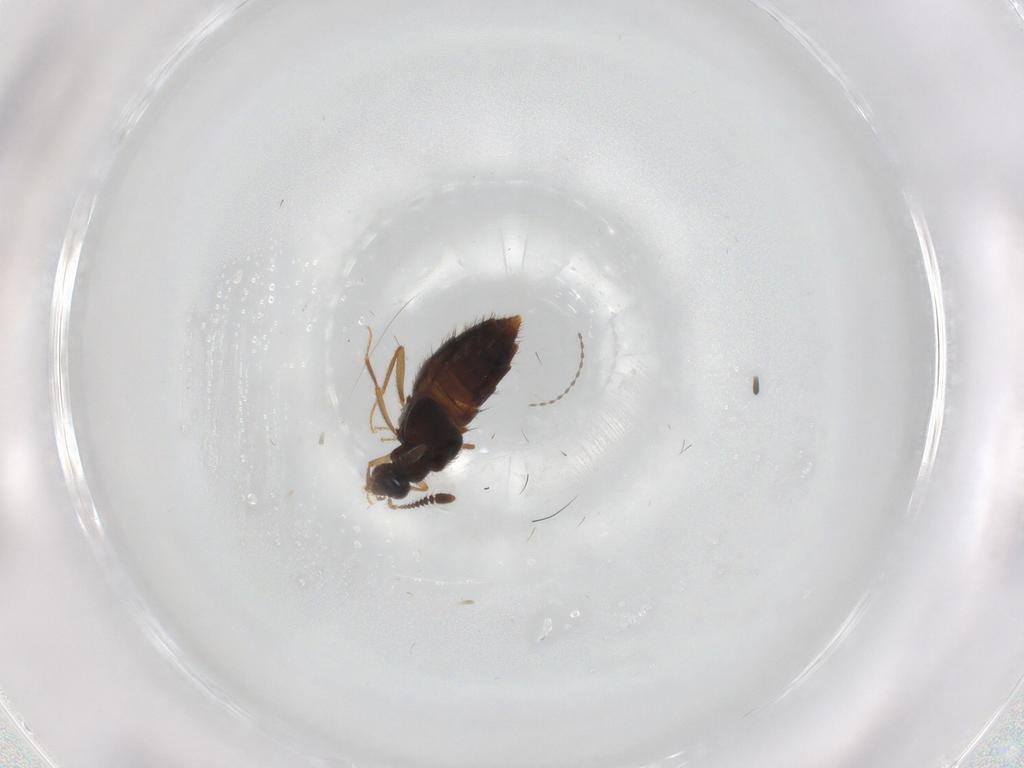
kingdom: Animalia
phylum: Arthropoda
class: Insecta
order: Coleoptera
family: Staphylinidae
